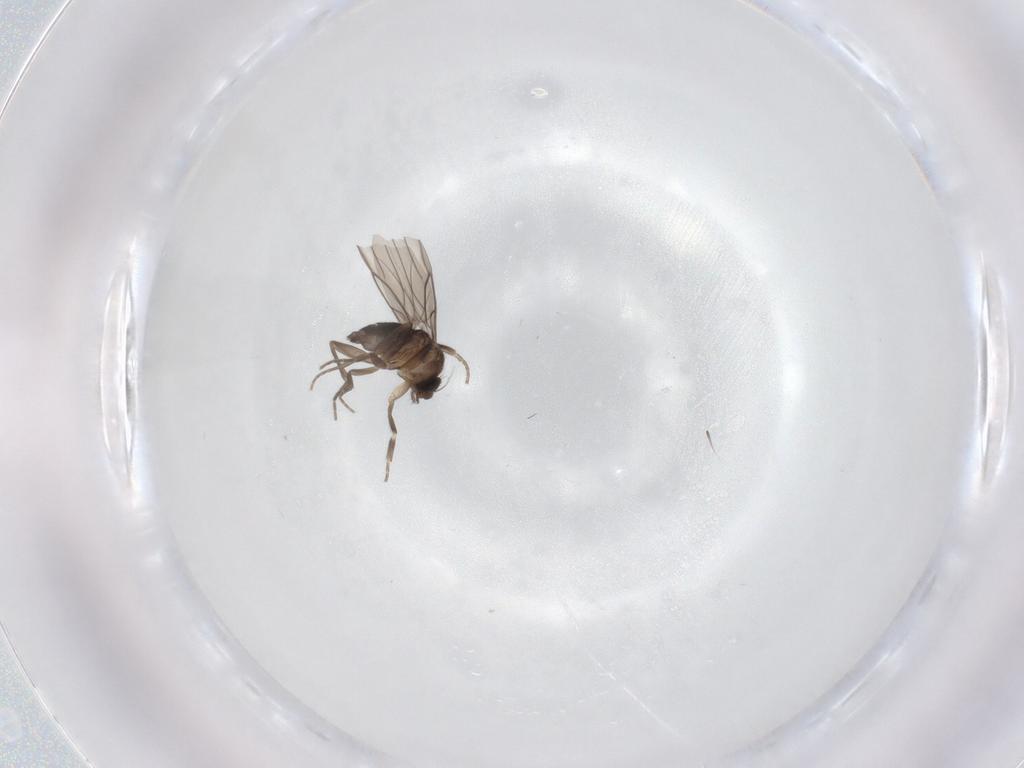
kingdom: Animalia
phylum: Arthropoda
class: Insecta
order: Diptera
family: Phoridae
